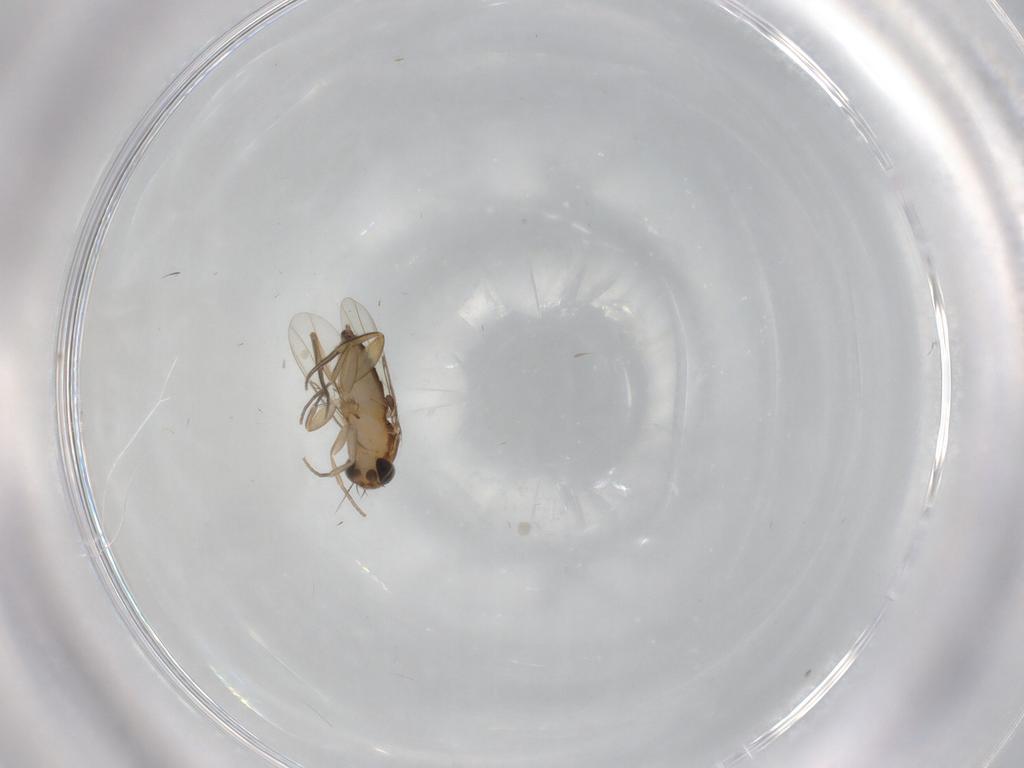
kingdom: Animalia
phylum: Arthropoda
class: Insecta
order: Diptera
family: Phoridae
